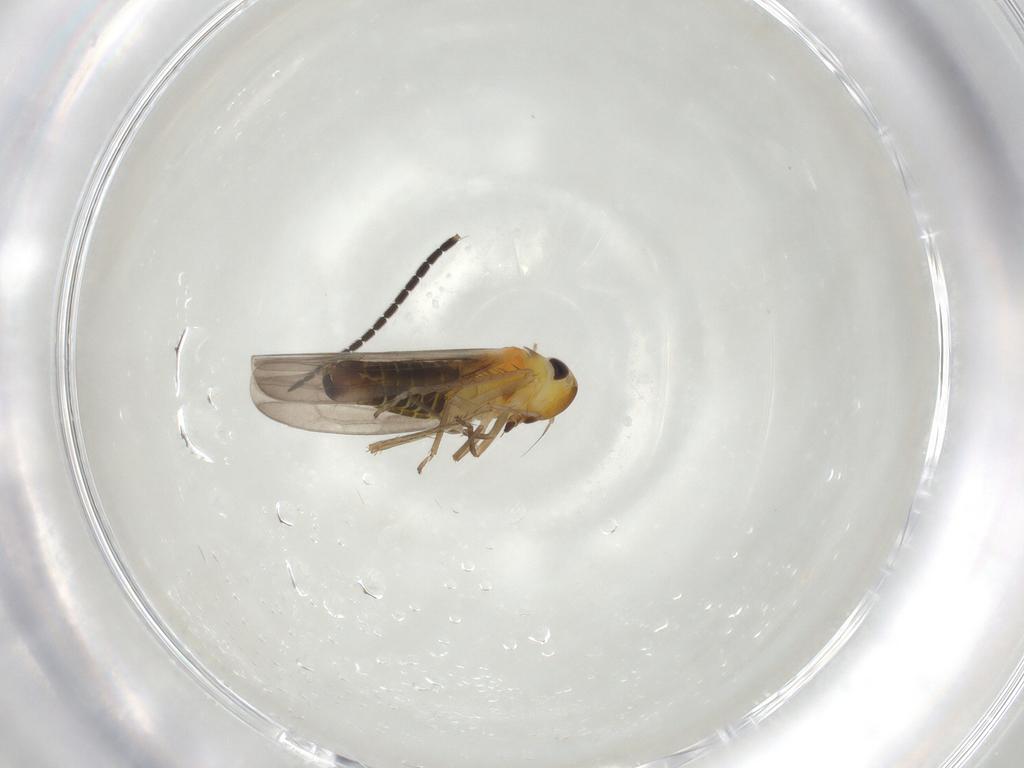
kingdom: Animalia
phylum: Arthropoda
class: Insecta
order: Hemiptera
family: Cicadellidae
